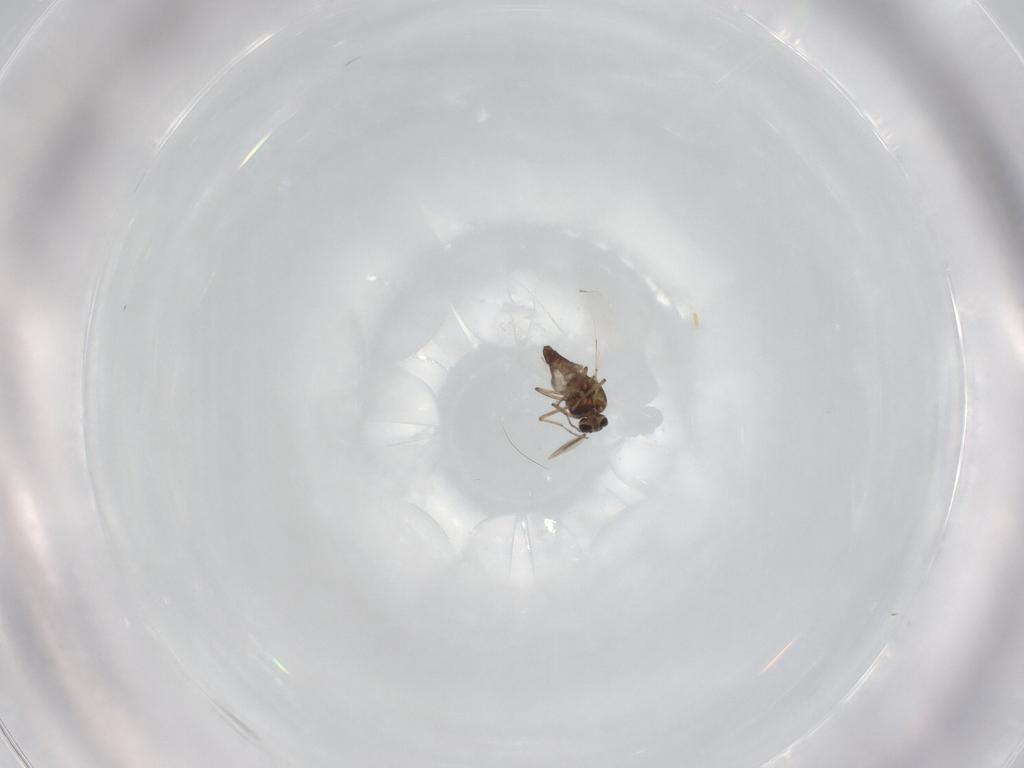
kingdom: Animalia
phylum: Arthropoda
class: Insecta
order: Diptera
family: Ceratopogonidae
